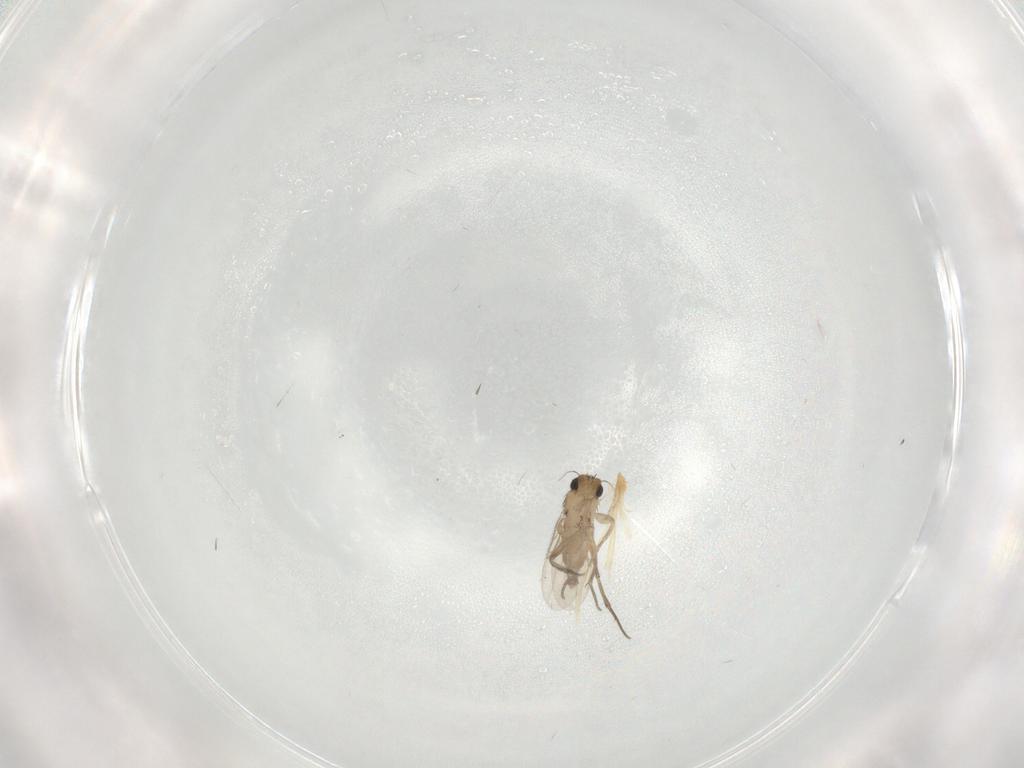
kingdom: Animalia
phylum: Arthropoda
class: Insecta
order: Diptera
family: Phoridae
